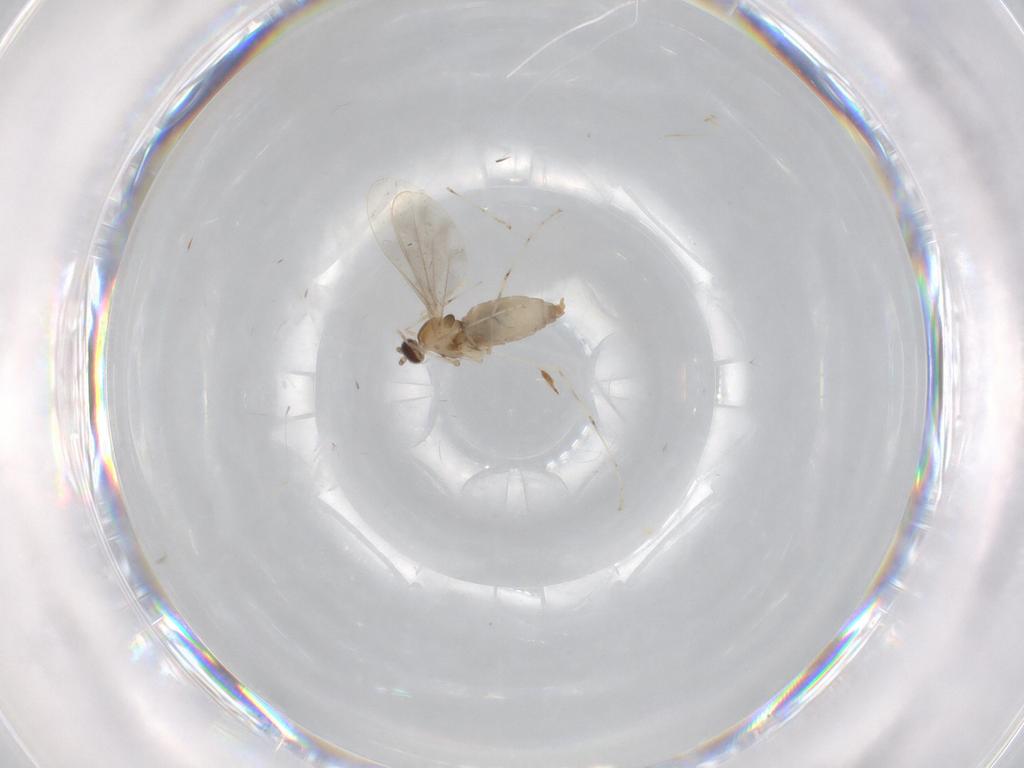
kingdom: Animalia
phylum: Arthropoda
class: Insecta
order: Diptera
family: Cecidomyiidae
